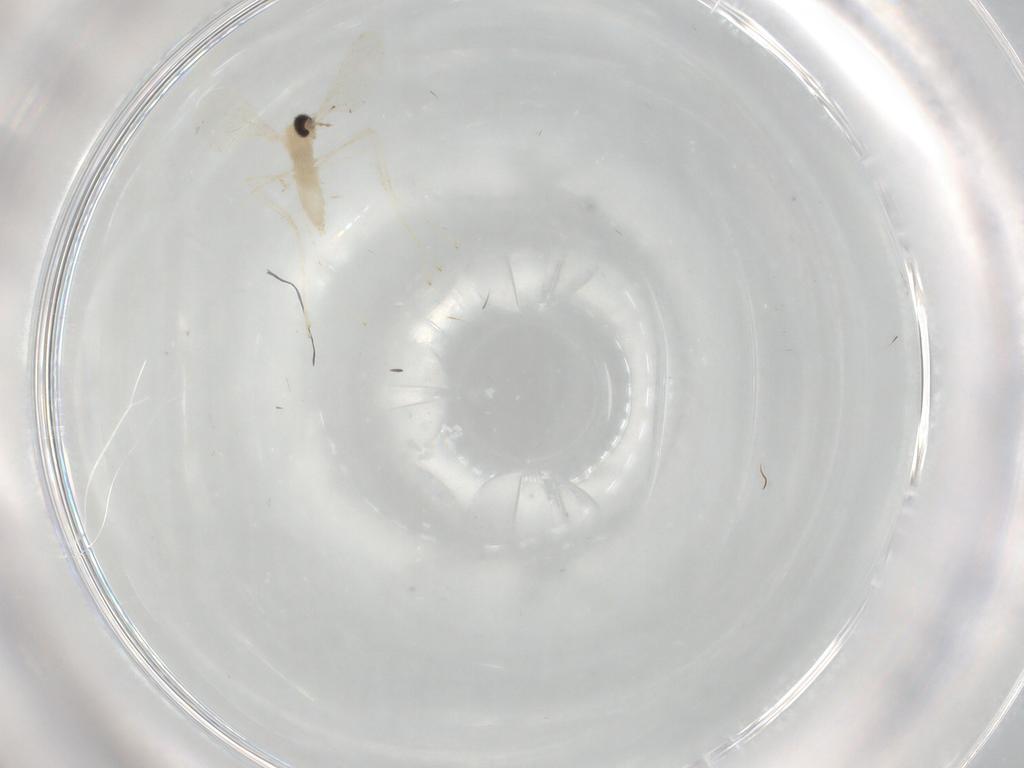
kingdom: Animalia
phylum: Arthropoda
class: Insecta
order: Diptera
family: Cecidomyiidae
